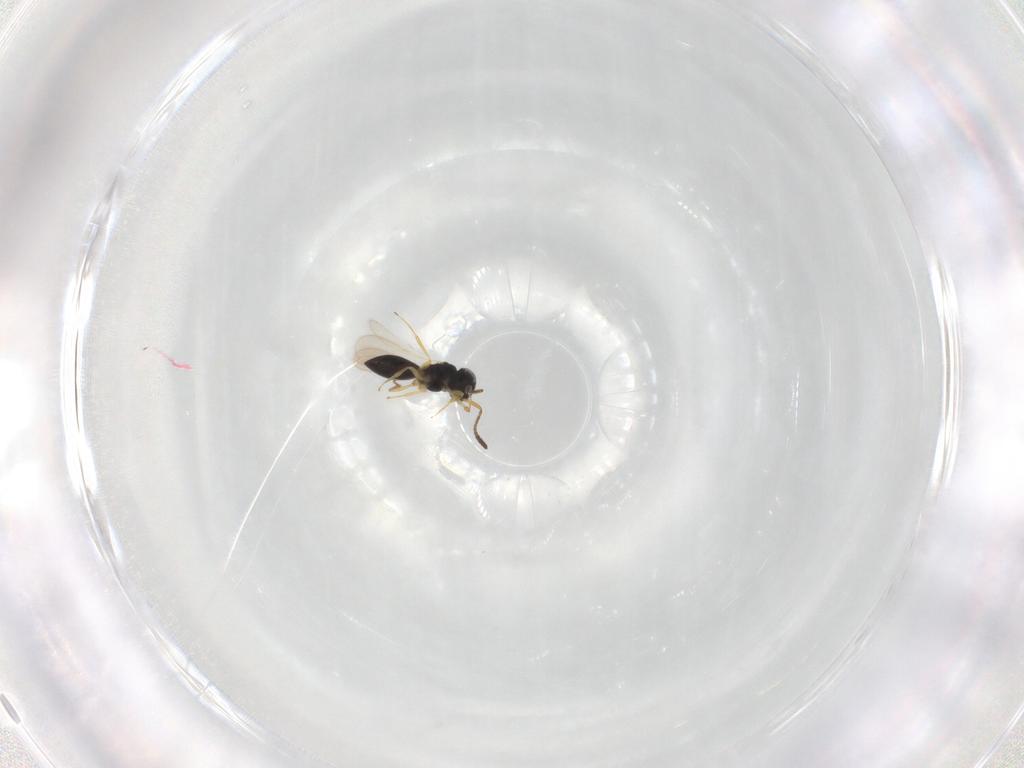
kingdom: Animalia
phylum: Arthropoda
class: Insecta
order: Hymenoptera
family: Scelionidae
